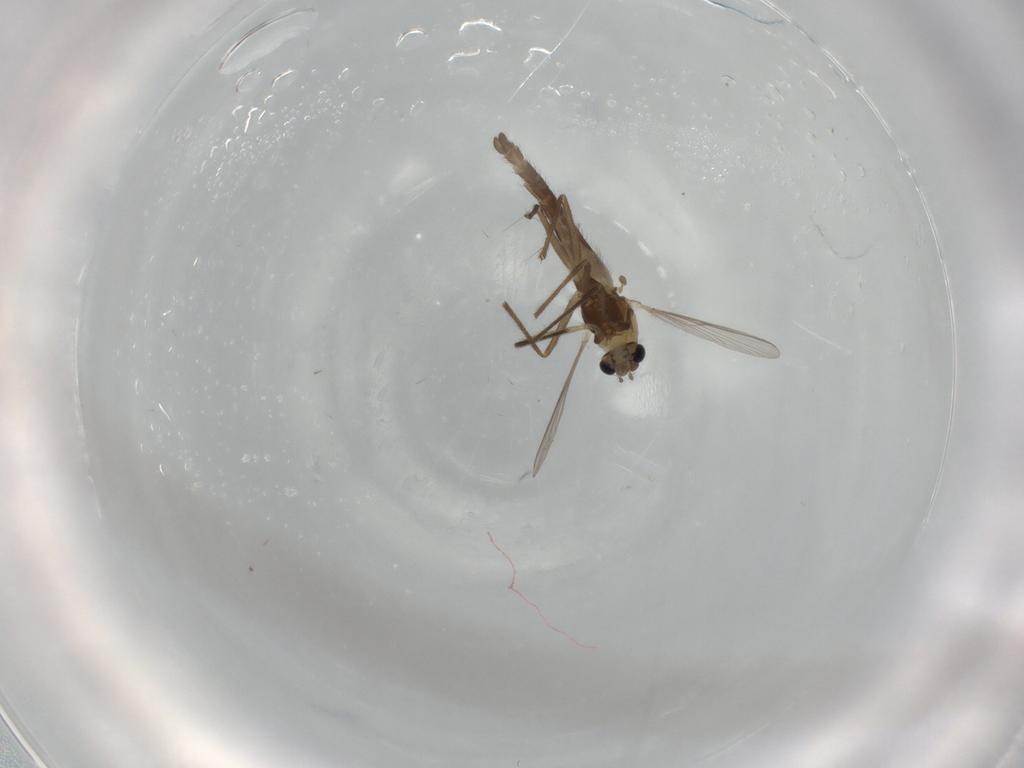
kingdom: Animalia
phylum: Arthropoda
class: Insecta
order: Diptera
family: Chironomidae
